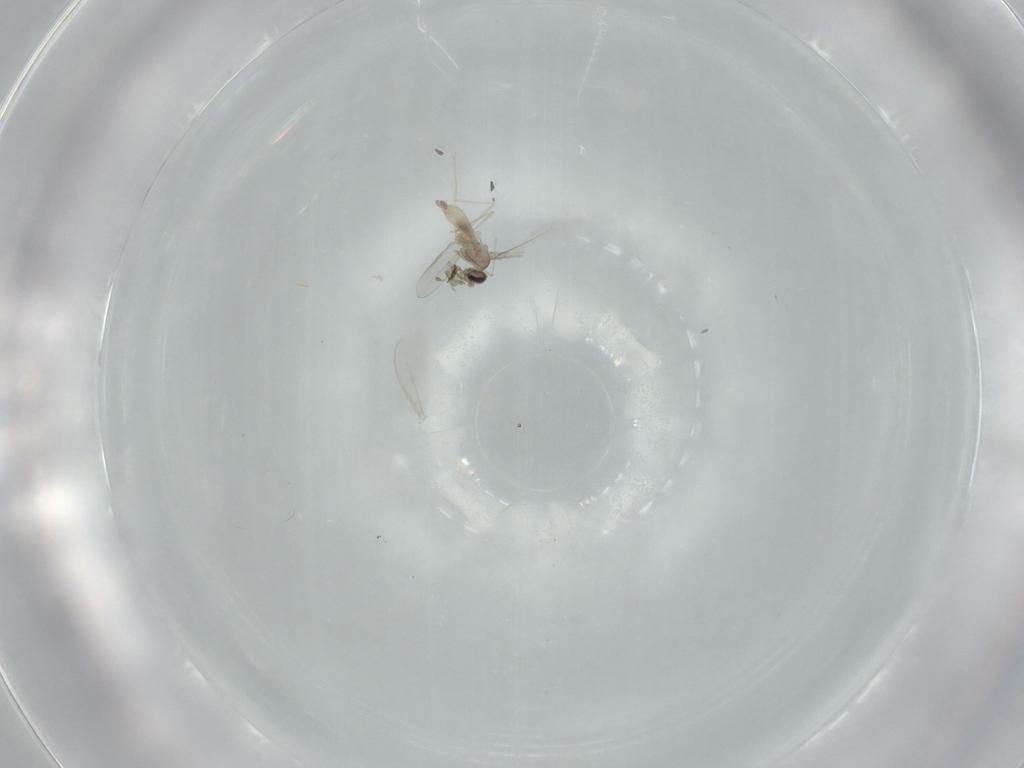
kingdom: Animalia
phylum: Arthropoda
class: Insecta
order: Diptera
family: Cecidomyiidae
